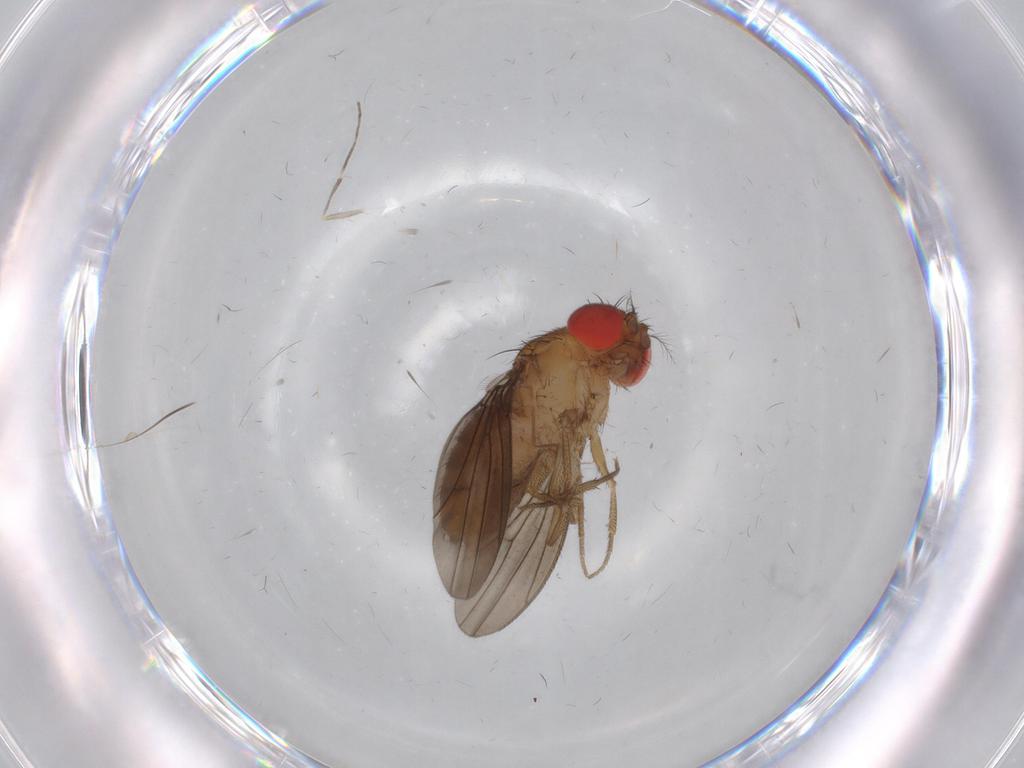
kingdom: Animalia
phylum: Arthropoda
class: Insecta
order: Diptera
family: Drosophilidae
